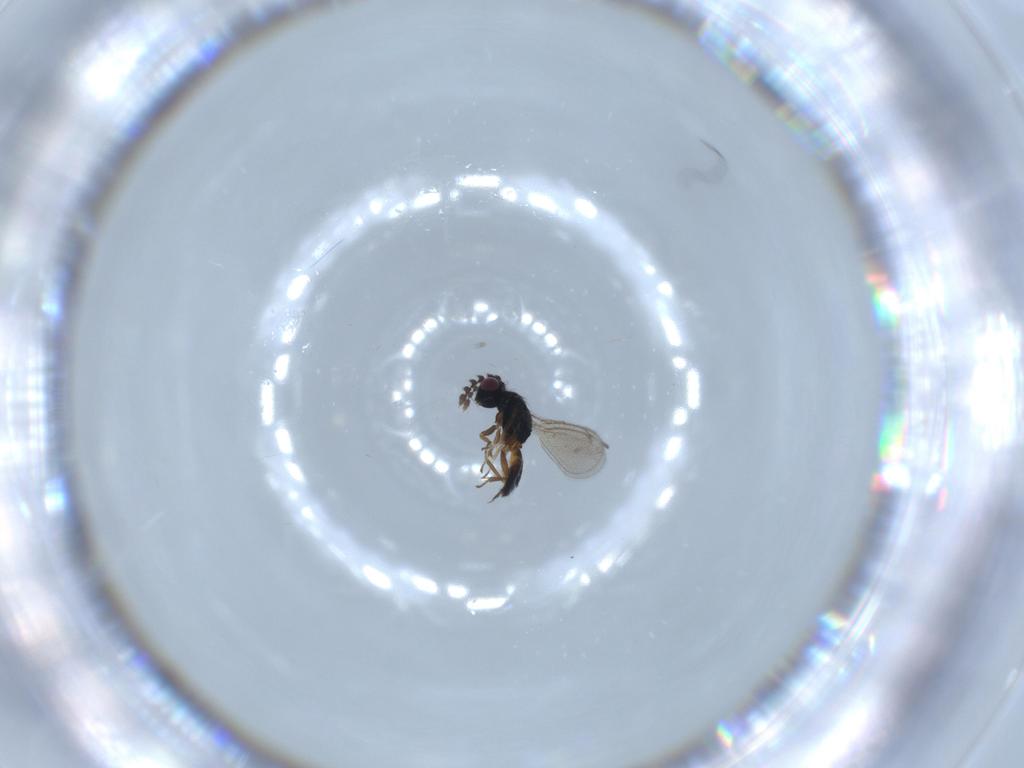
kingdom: Animalia
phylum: Arthropoda
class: Insecta
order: Hymenoptera
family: Eulophidae
